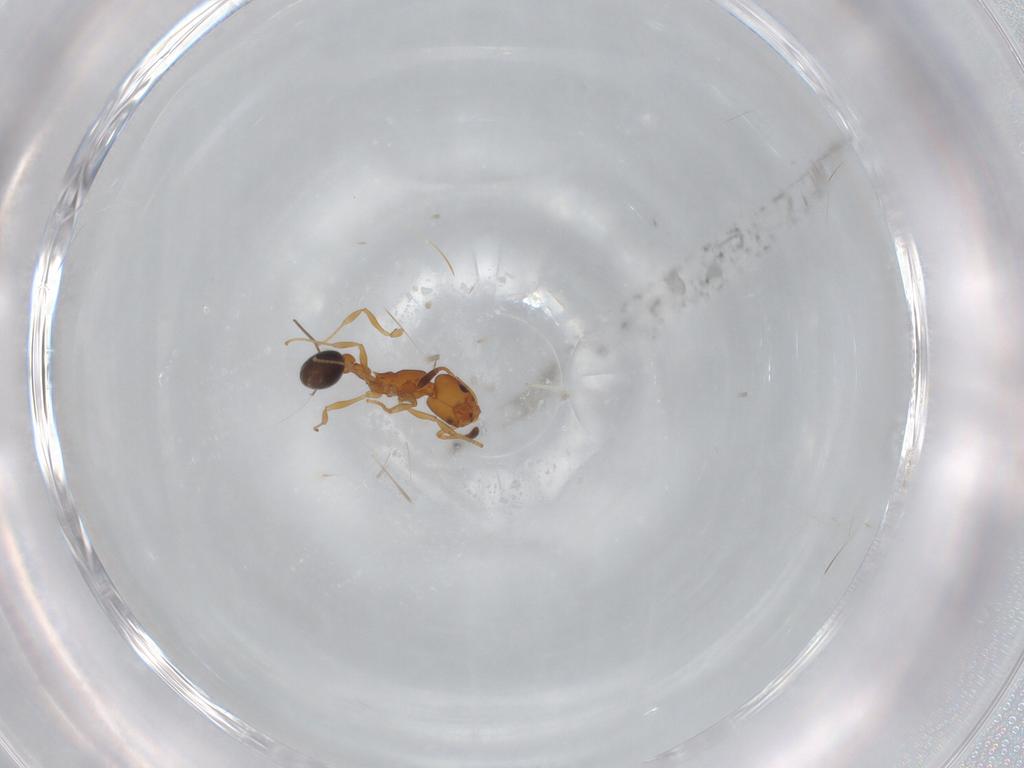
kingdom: Animalia
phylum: Arthropoda
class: Insecta
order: Hymenoptera
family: Formicidae
